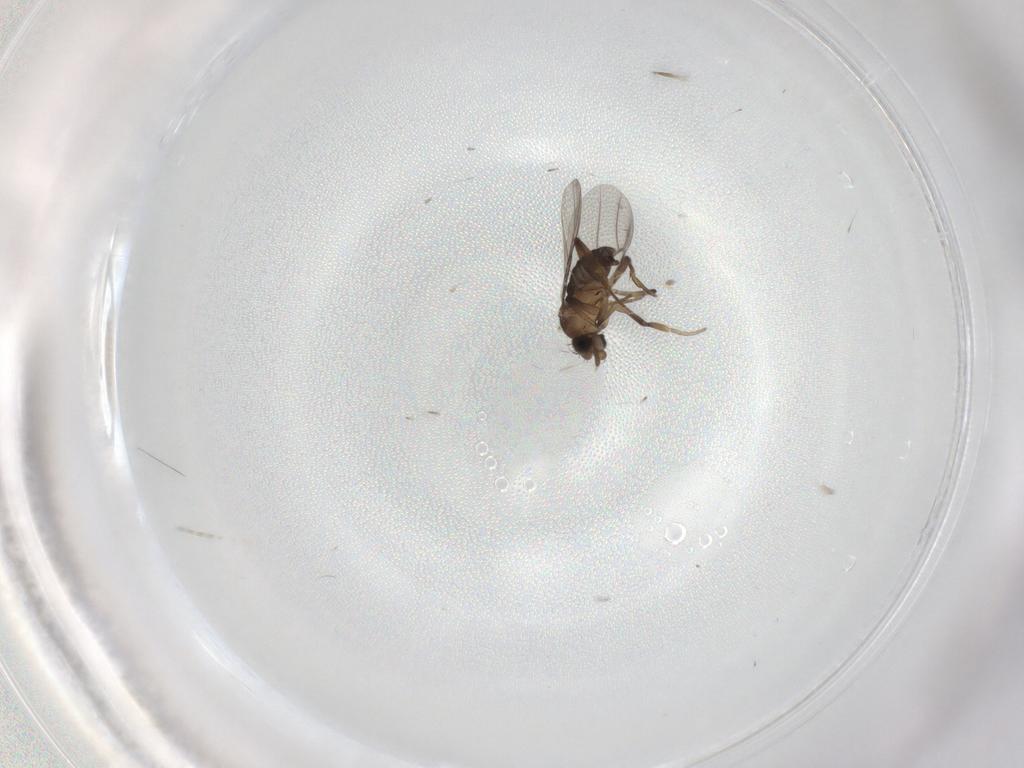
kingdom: Animalia
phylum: Arthropoda
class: Insecta
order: Diptera
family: Phoridae
